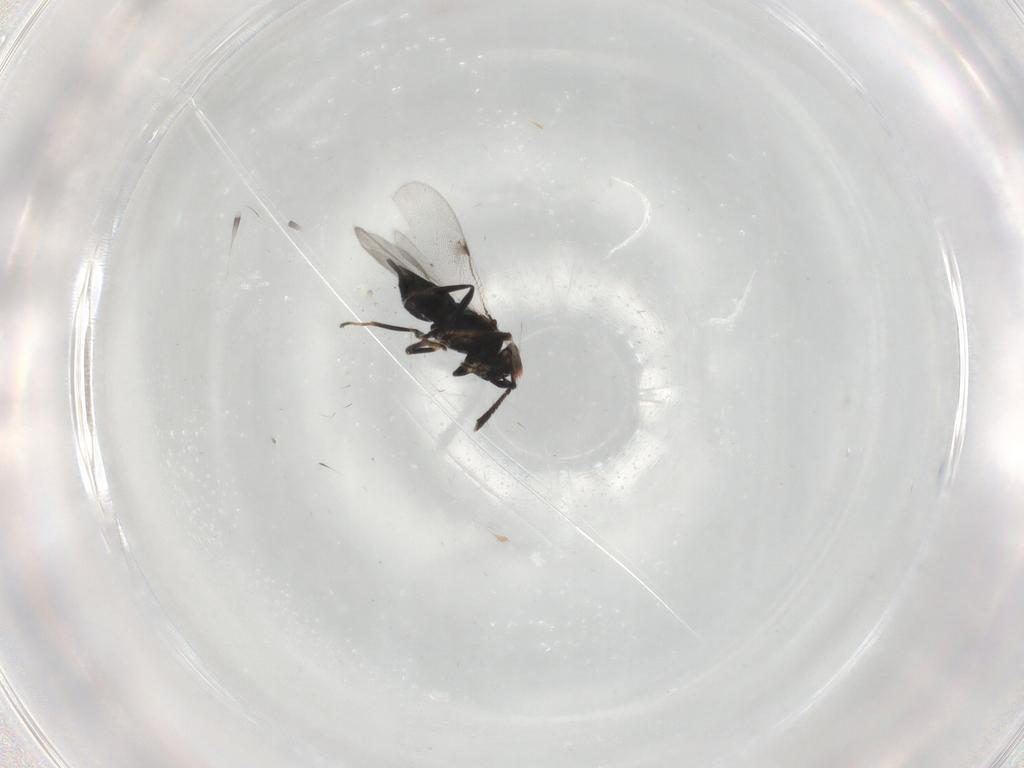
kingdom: Animalia
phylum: Arthropoda
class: Insecta
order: Hymenoptera
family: Encyrtidae
